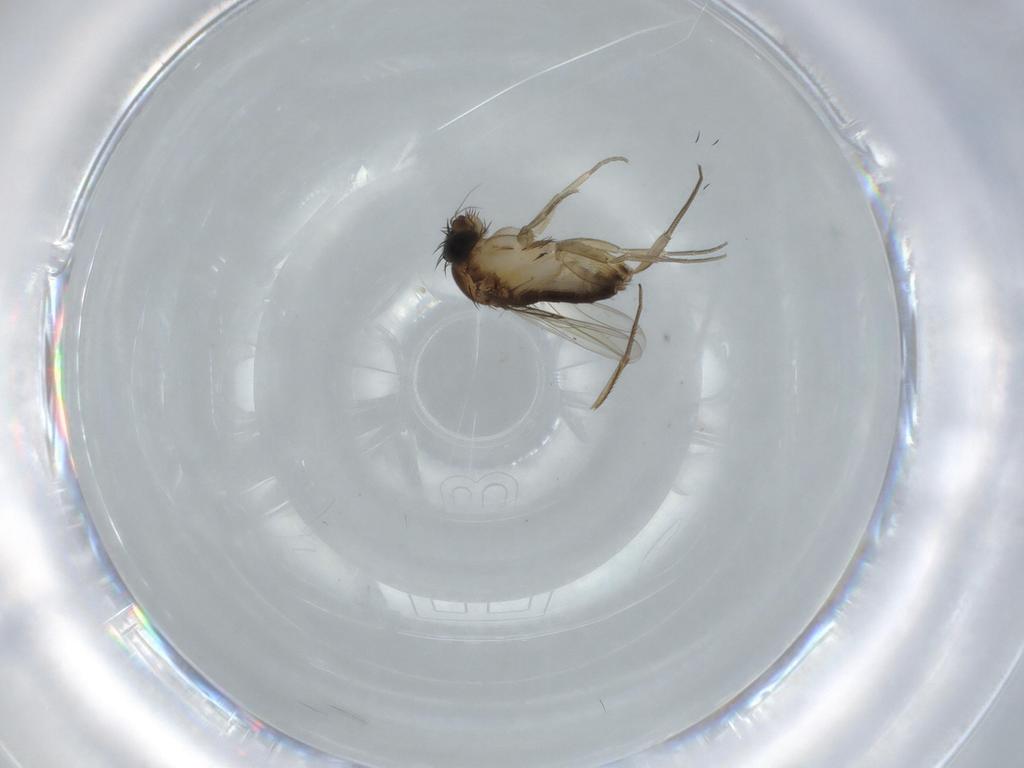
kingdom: Animalia
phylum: Arthropoda
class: Insecta
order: Diptera
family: Phoridae
